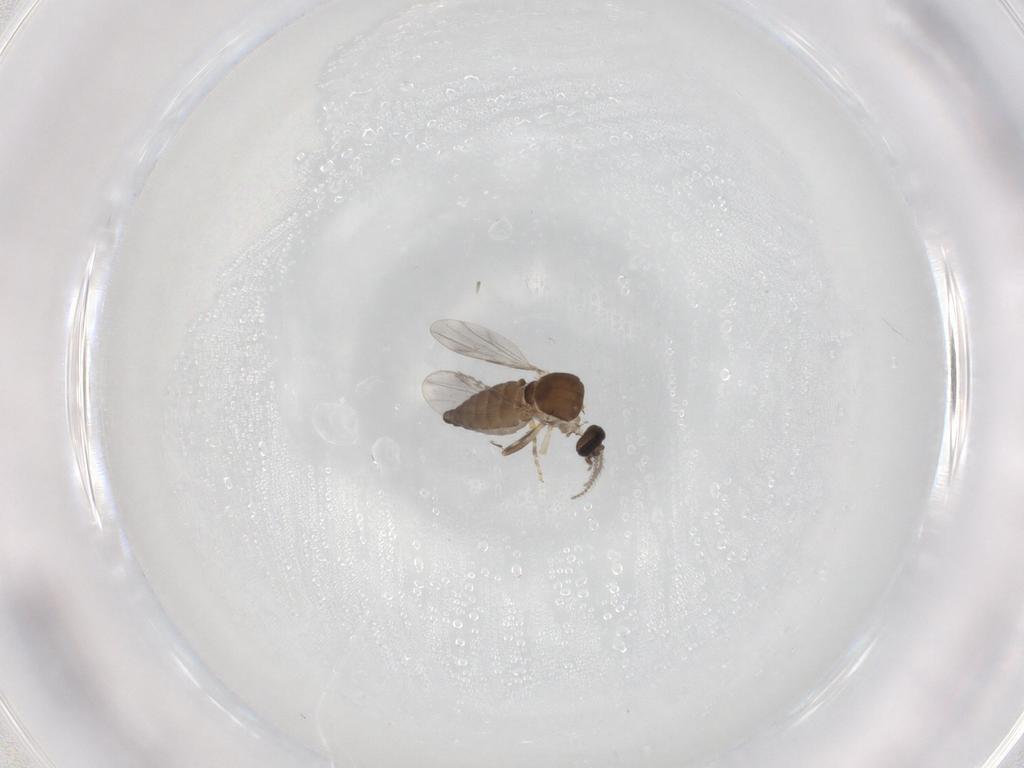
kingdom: Animalia
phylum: Arthropoda
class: Insecta
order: Diptera
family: Ceratopogonidae
